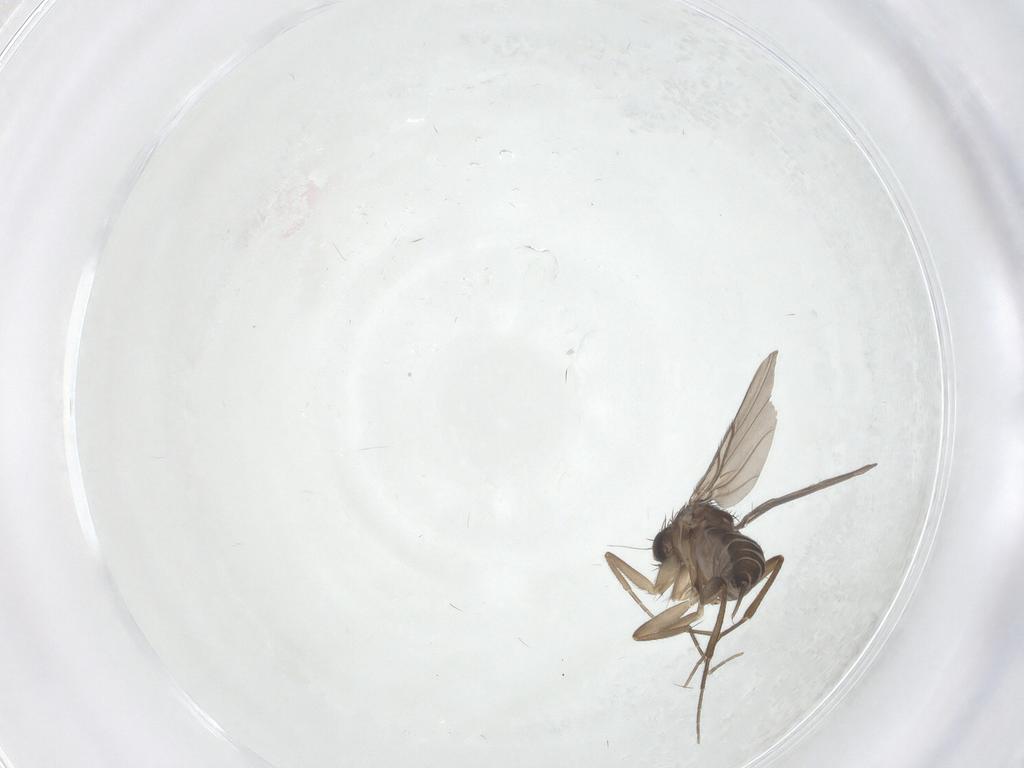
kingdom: Animalia
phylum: Arthropoda
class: Insecta
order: Diptera
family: Phoridae
